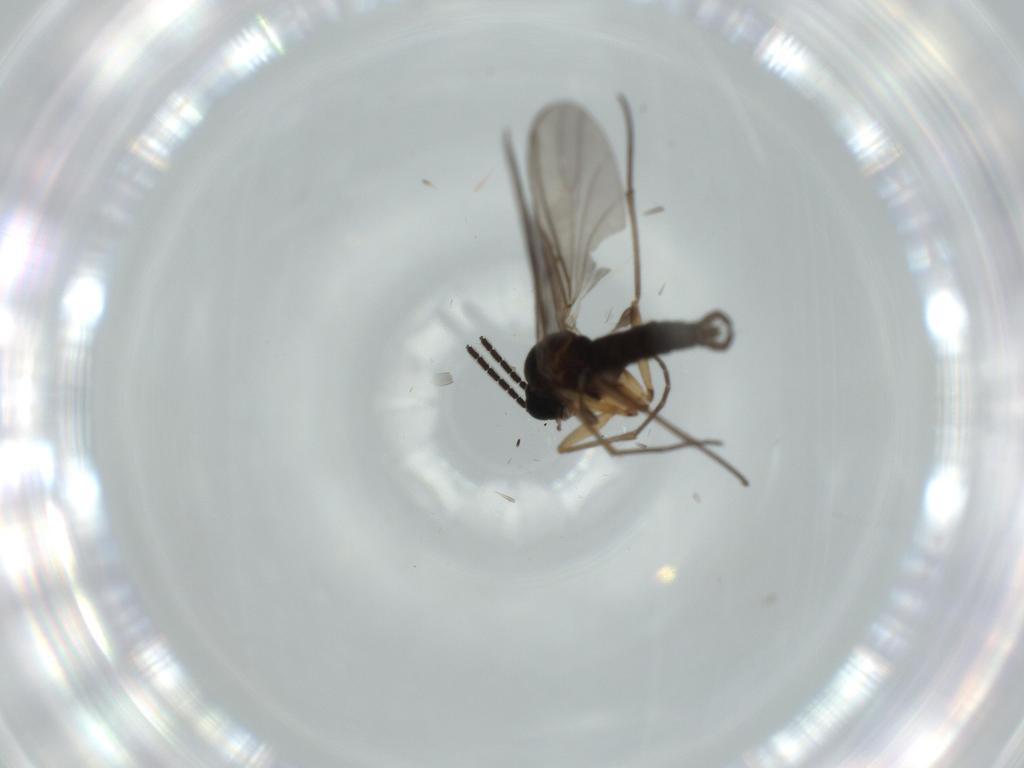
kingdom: Animalia
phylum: Arthropoda
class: Insecta
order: Diptera
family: Sciaridae
